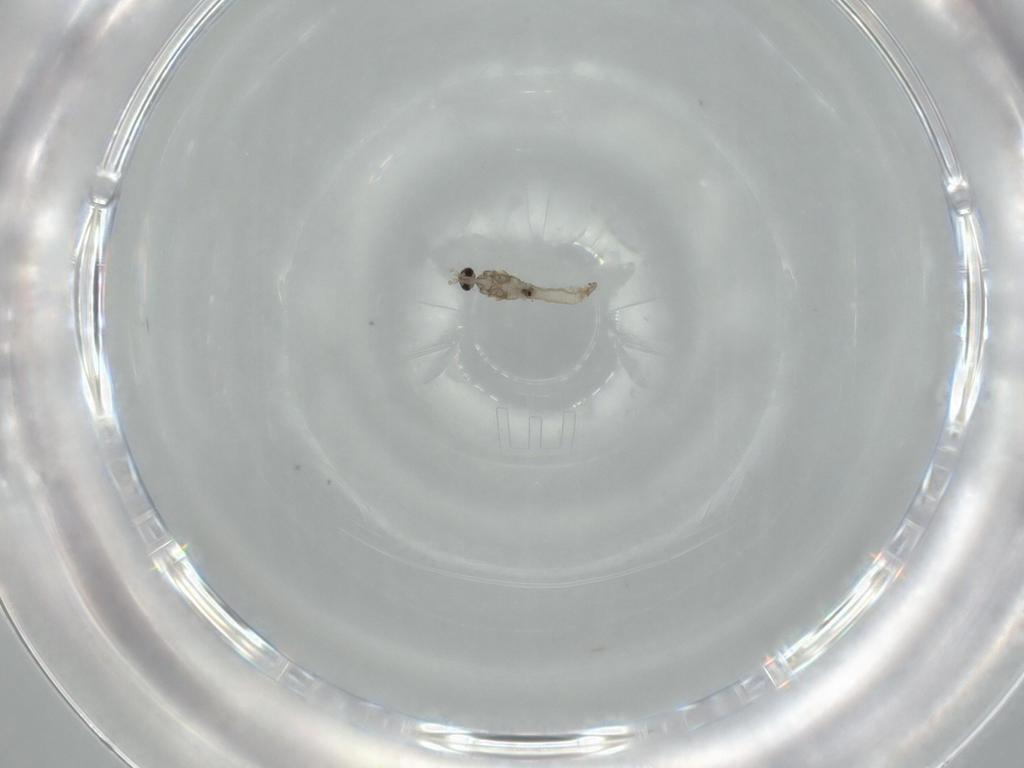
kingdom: Animalia
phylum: Arthropoda
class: Insecta
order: Diptera
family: Cecidomyiidae
